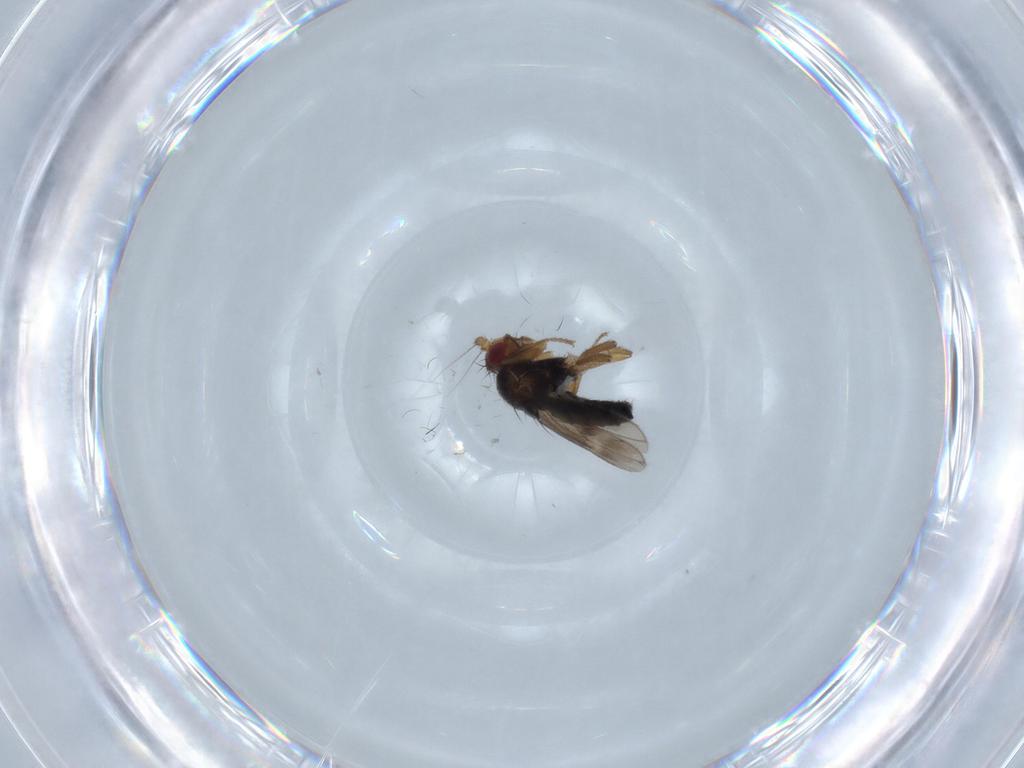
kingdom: Animalia
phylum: Arthropoda
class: Insecta
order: Diptera
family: Sphaeroceridae
